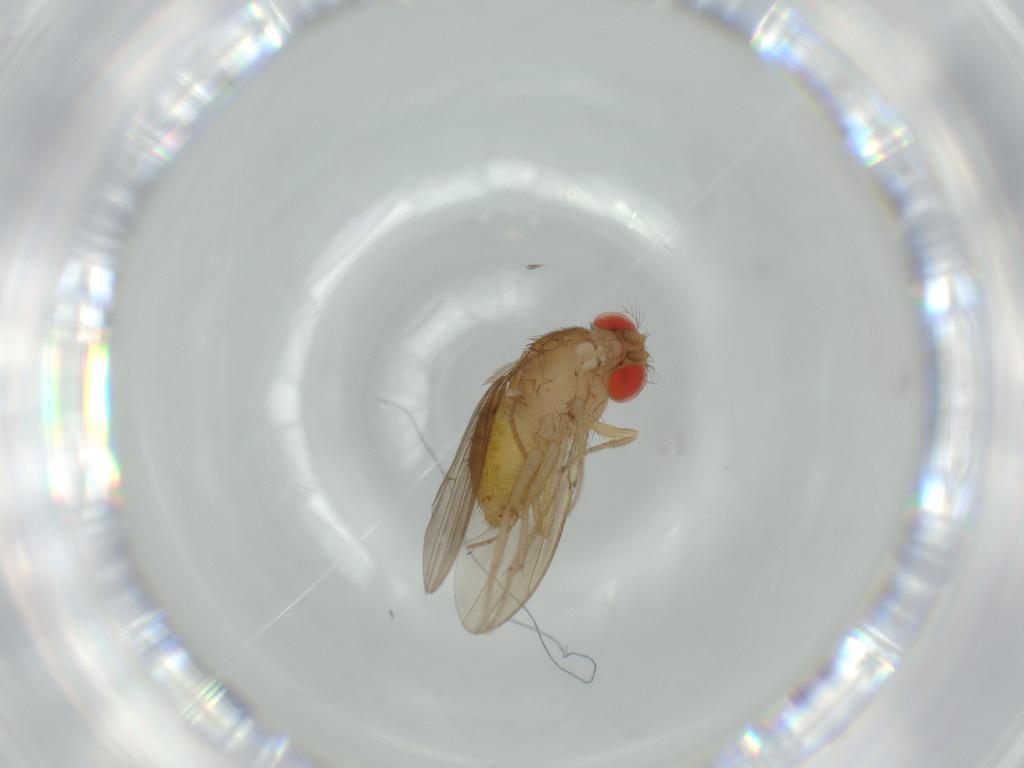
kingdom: Animalia
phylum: Arthropoda
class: Insecta
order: Diptera
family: Drosophilidae
